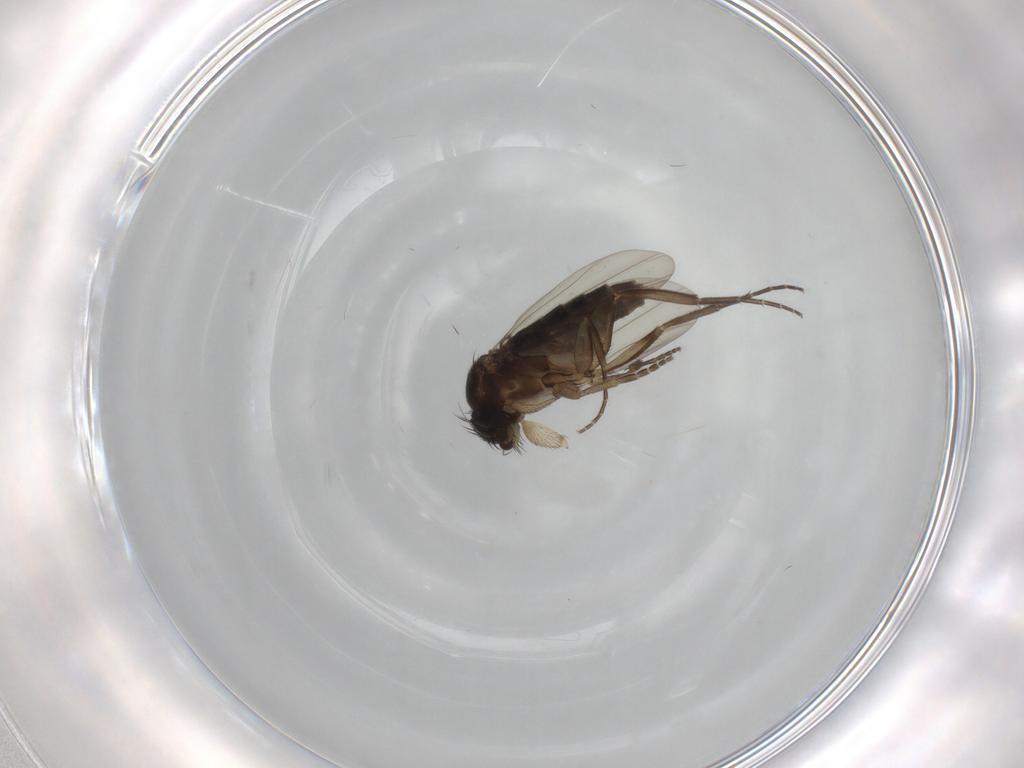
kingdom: Animalia
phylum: Arthropoda
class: Insecta
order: Diptera
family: Phoridae
